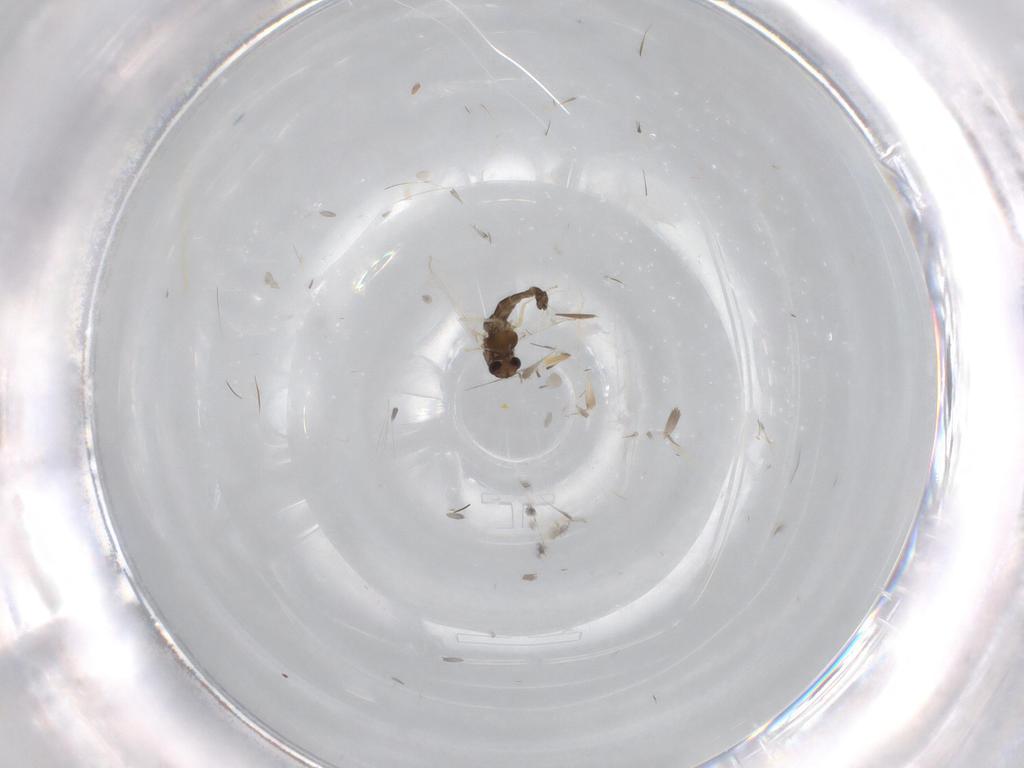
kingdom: Animalia
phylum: Arthropoda
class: Insecta
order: Diptera
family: Chironomidae
